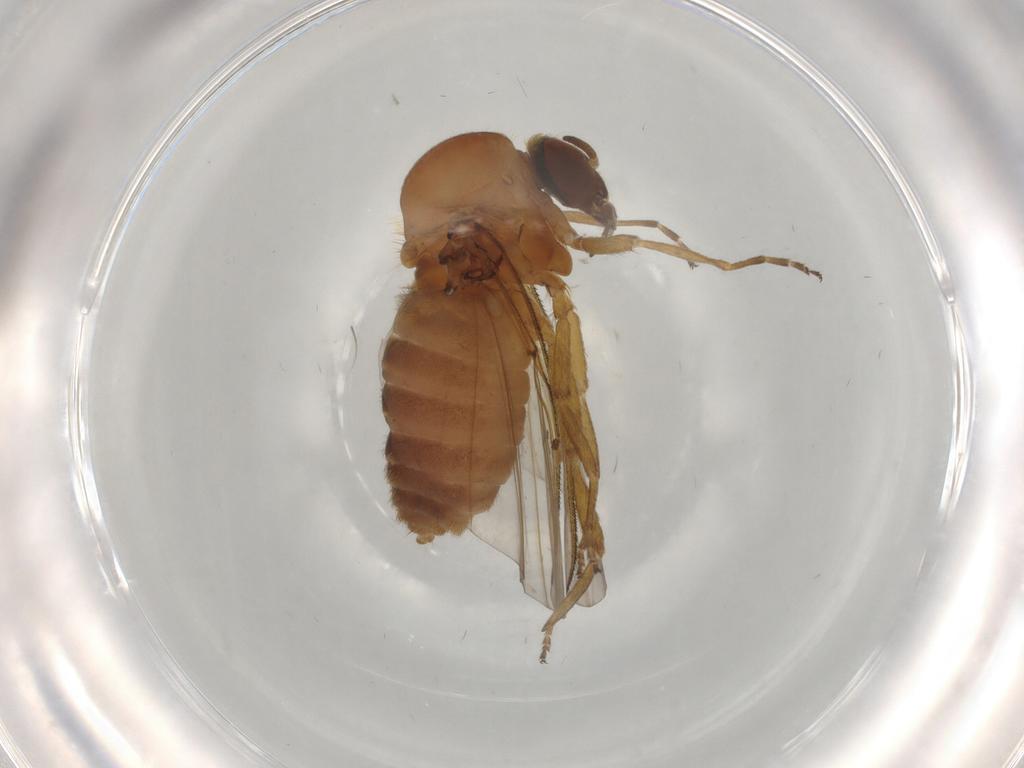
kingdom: Animalia
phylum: Arthropoda
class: Insecta
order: Diptera
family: Simuliidae
